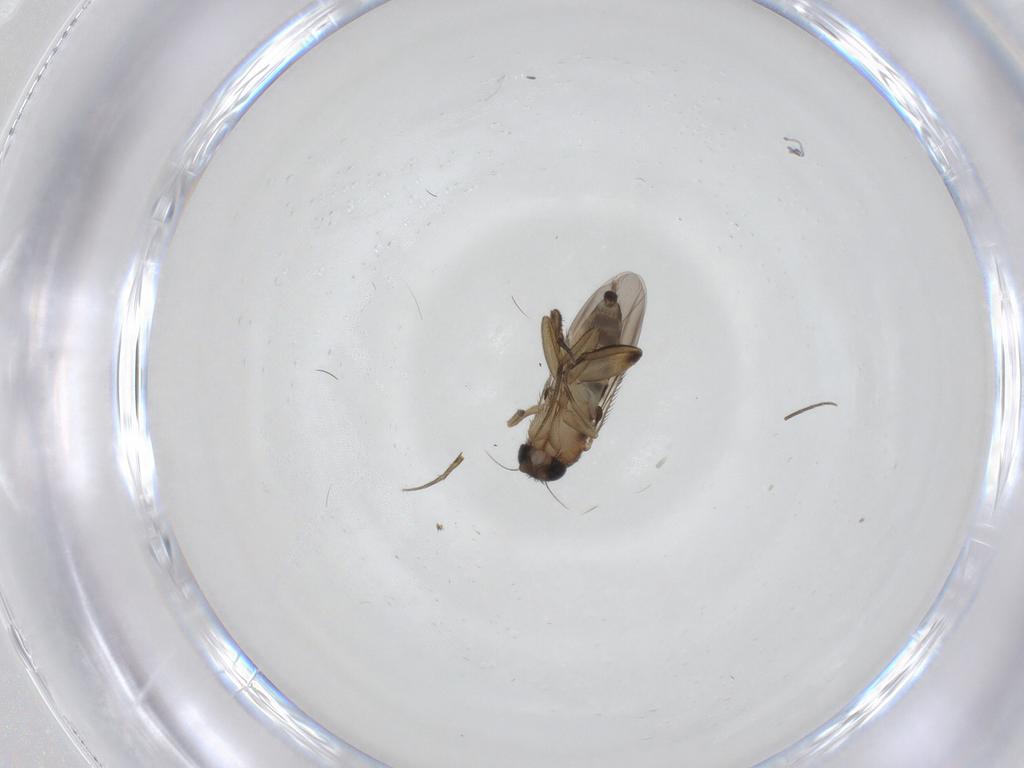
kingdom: Animalia
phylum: Arthropoda
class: Insecta
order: Diptera
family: Phoridae
